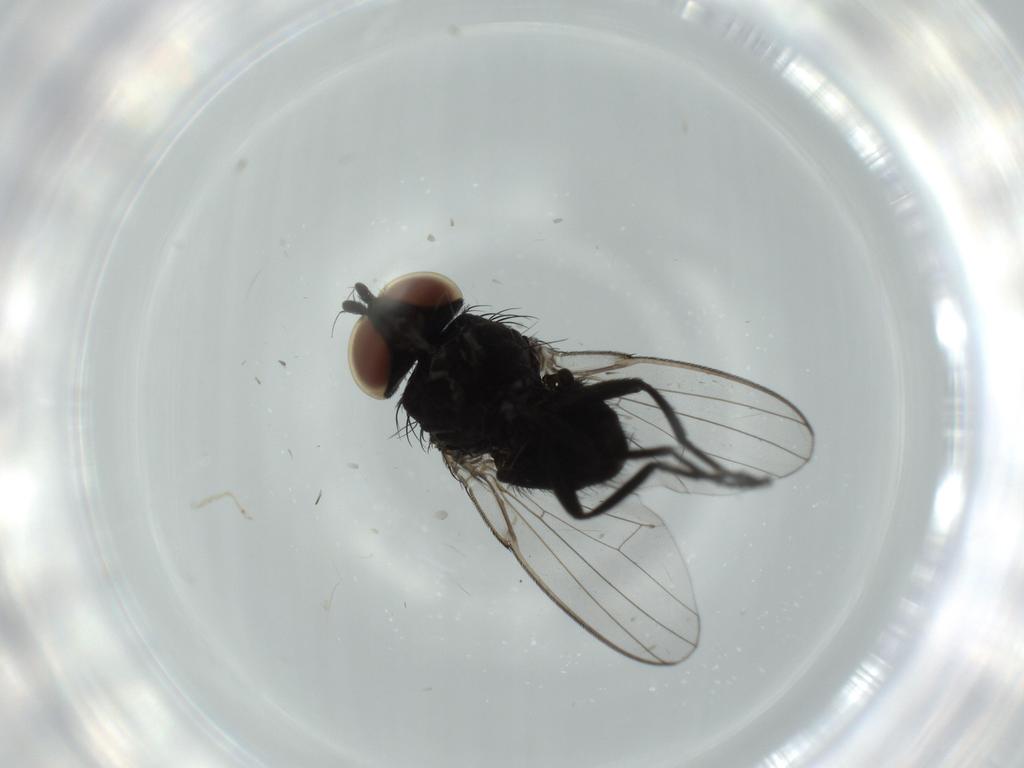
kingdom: Animalia
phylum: Arthropoda
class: Insecta
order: Diptera
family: Milichiidae
